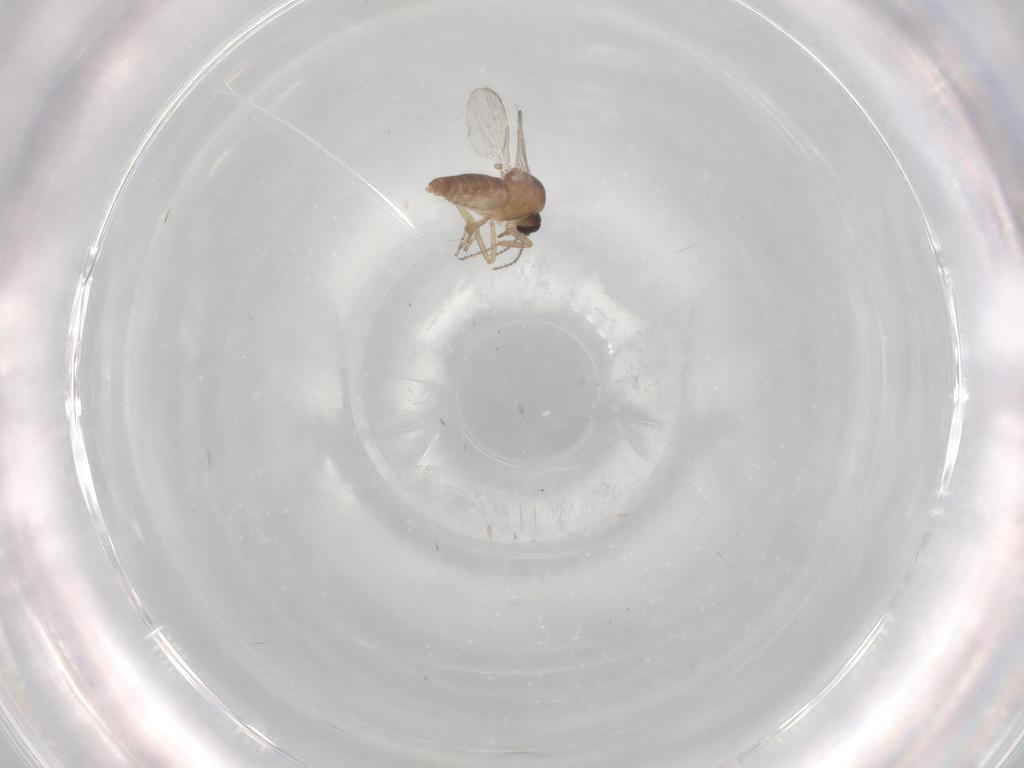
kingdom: Animalia
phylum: Arthropoda
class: Insecta
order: Diptera
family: Ceratopogonidae
